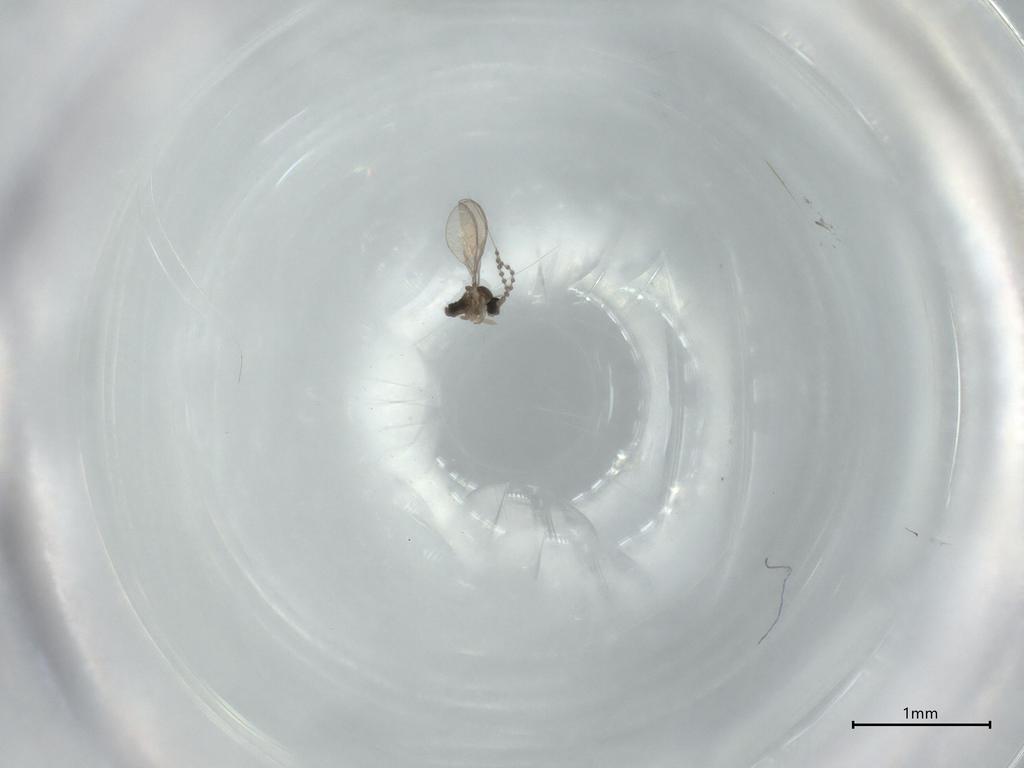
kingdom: Animalia
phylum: Arthropoda
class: Insecta
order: Diptera
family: Cecidomyiidae
